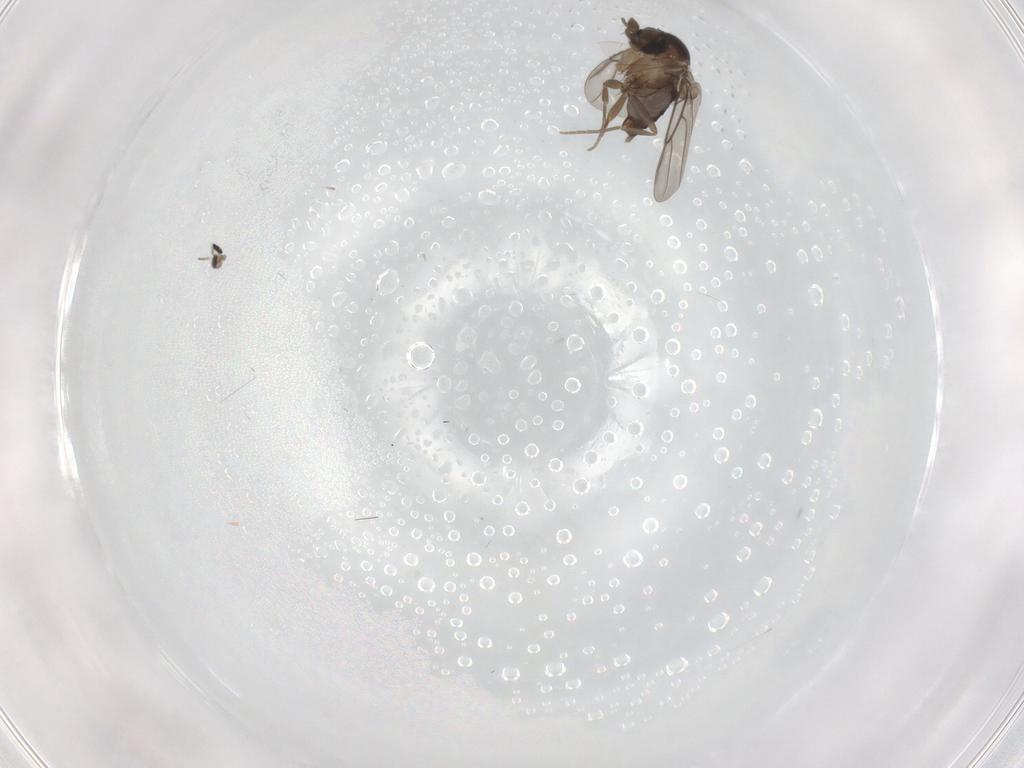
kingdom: Animalia
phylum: Arthropoda
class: Insecta
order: Diptera
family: Phoridae
